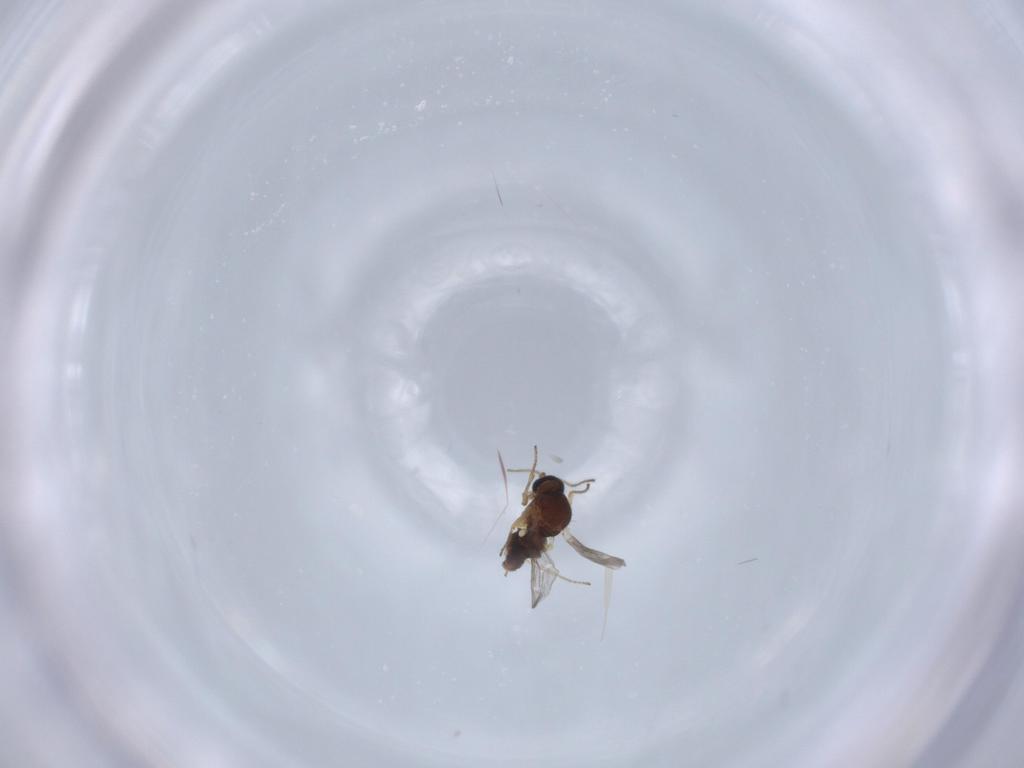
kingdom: Animalia
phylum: Arthropoda
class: Insecta
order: Diptera
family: Ceratopogonidae
